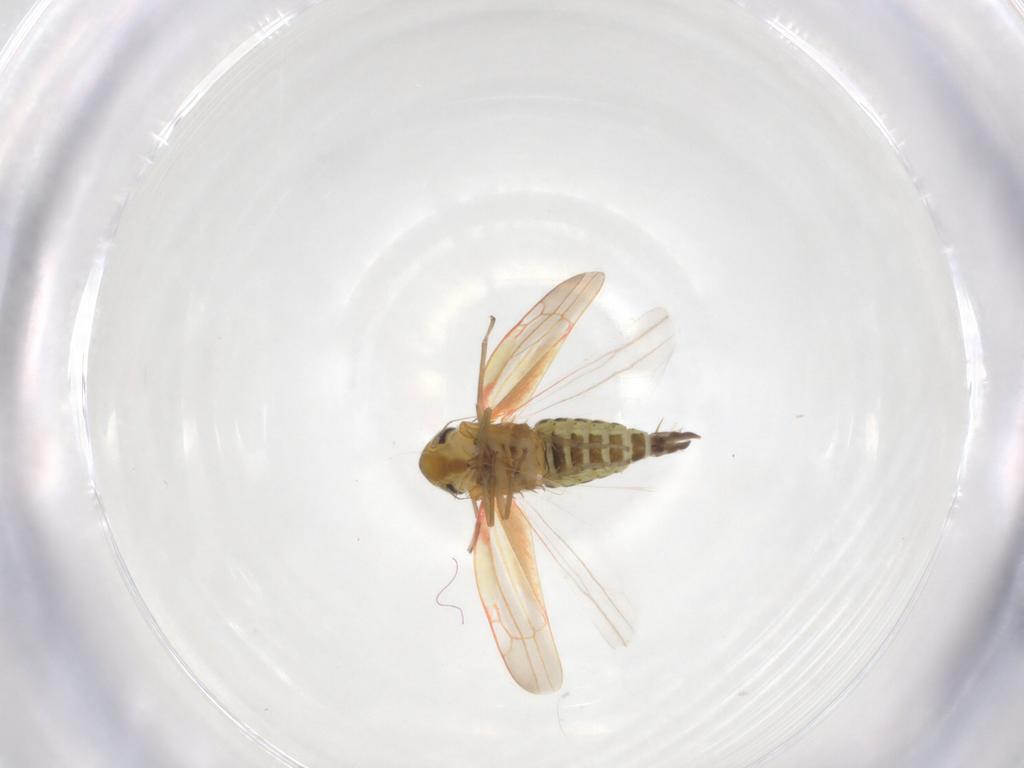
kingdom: Animalia
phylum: Arthropoda
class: Insecta
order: Hemiptera
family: Cicadellidae
